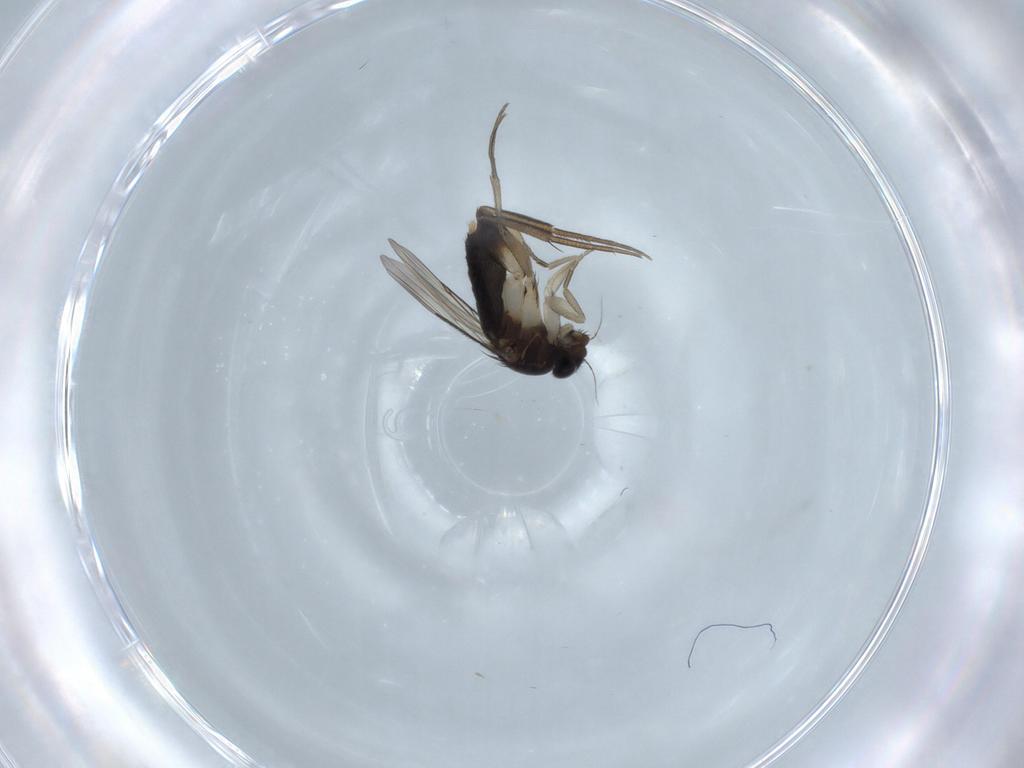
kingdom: Animalia
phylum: Arthropoda
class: Insecta
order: Diptera
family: Phoridae
